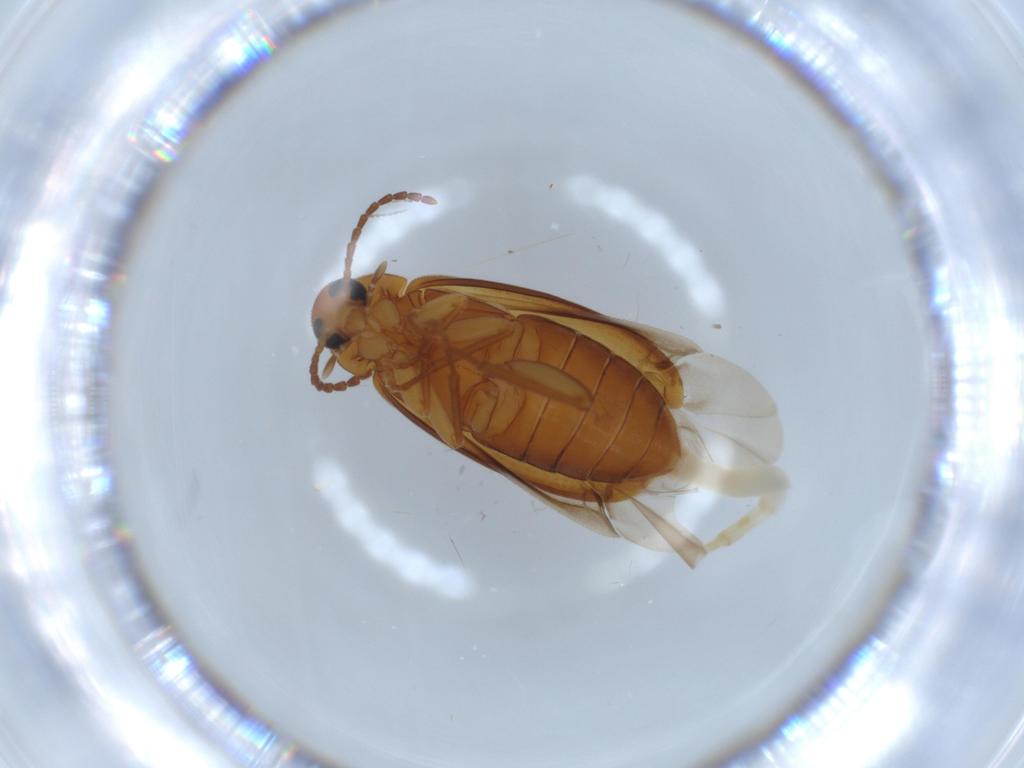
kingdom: Animalia
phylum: Arthropoda
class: Insecta
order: Coleoptera
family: Scraptiidae
